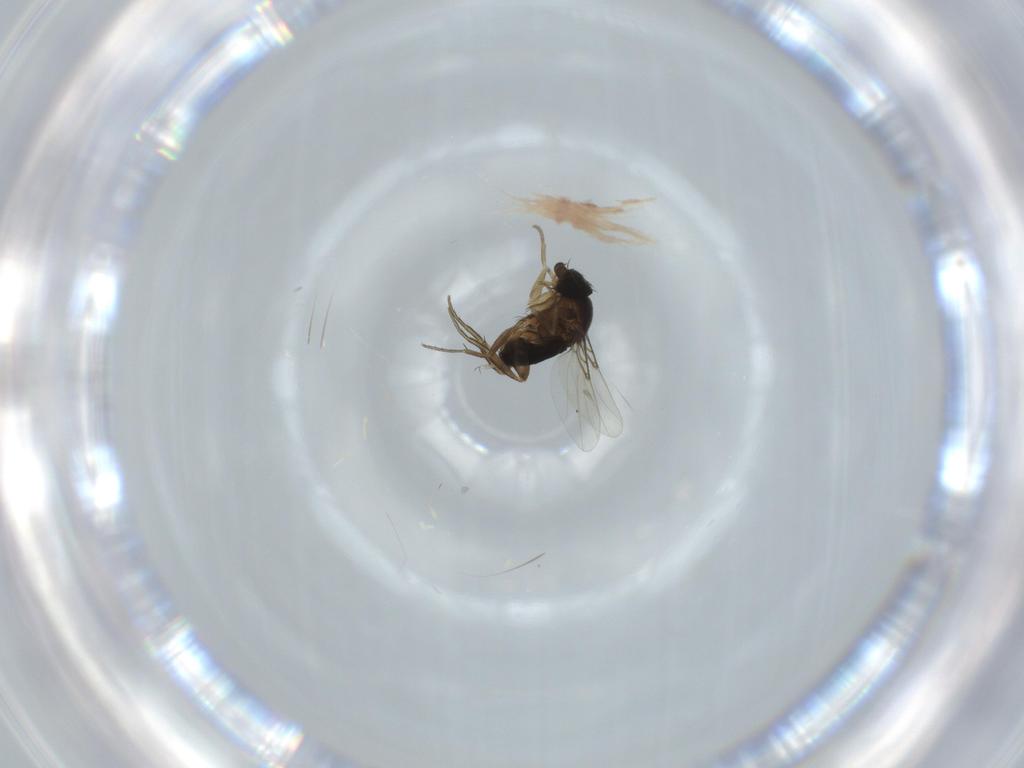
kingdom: Animalia
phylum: Arthropoda
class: Insecta
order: Diptera
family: Phoridae
